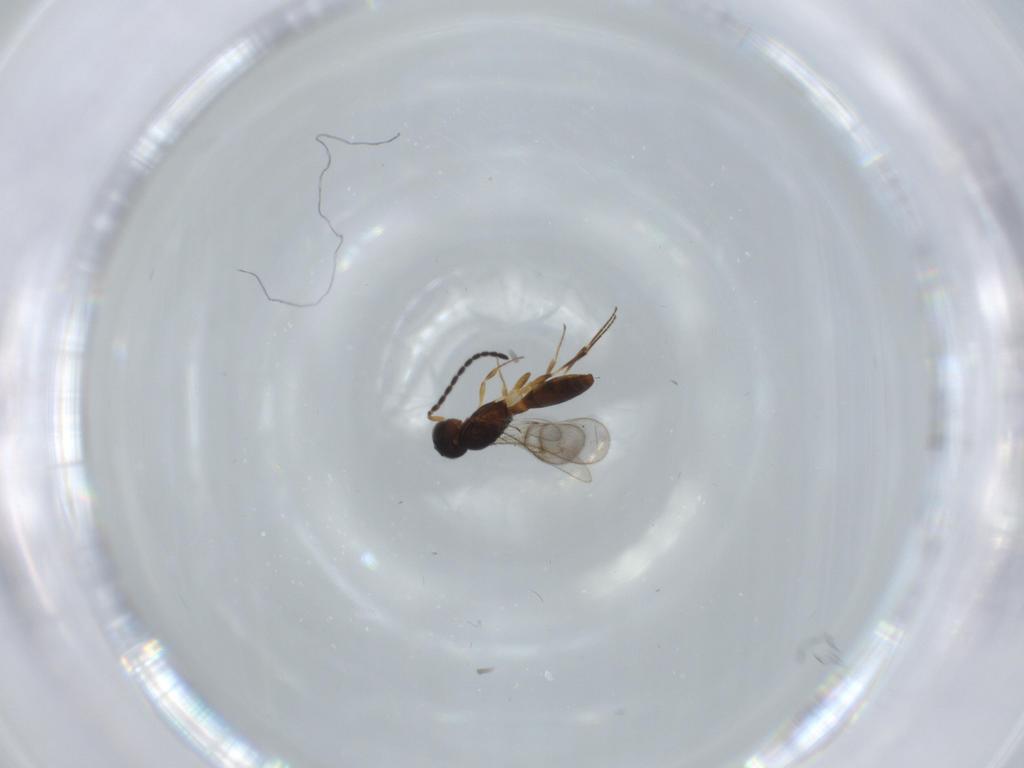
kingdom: Animalia
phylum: Arthropoda
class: Insecta
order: Hymenoptera
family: Scelionidae
